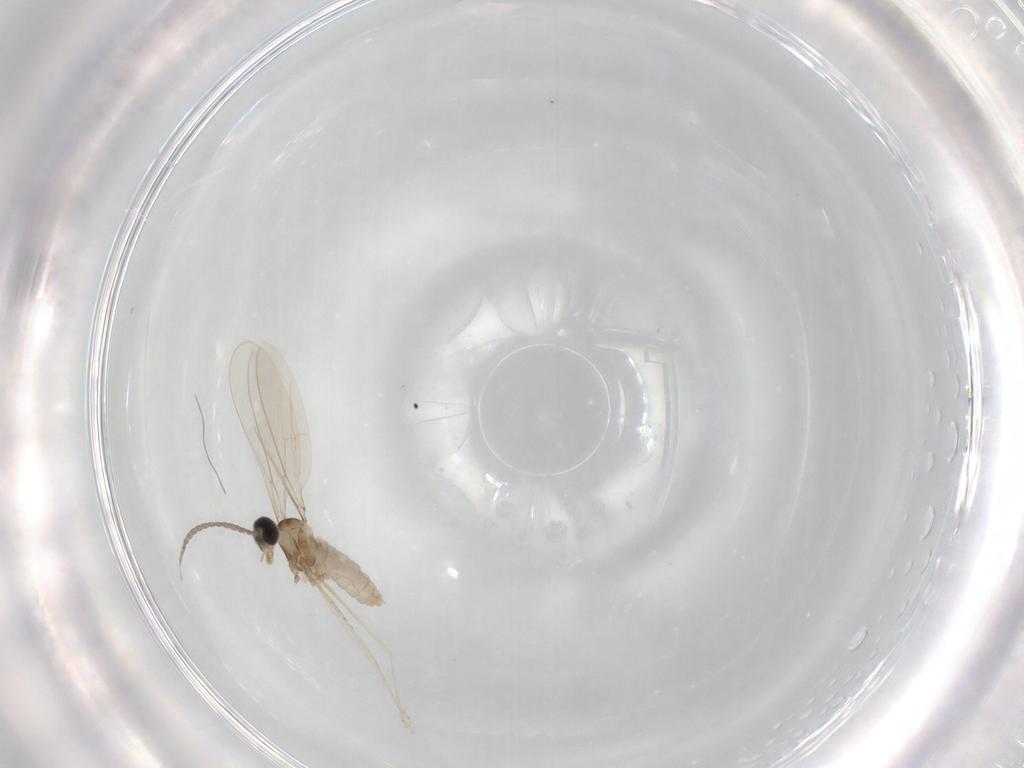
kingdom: Animalia
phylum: Arthropoda
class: Insecta
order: Diptera
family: Cecidomyiidae
